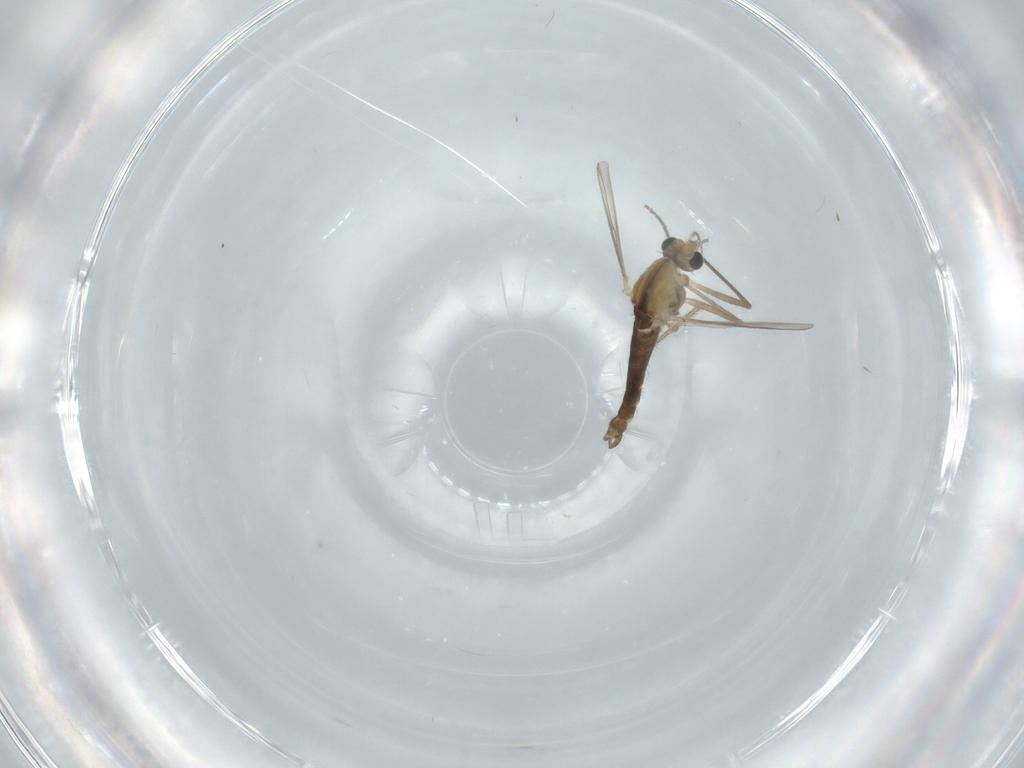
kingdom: Animalia
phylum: Arthropoda
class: Insecta
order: Diptera
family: Chironomidae
